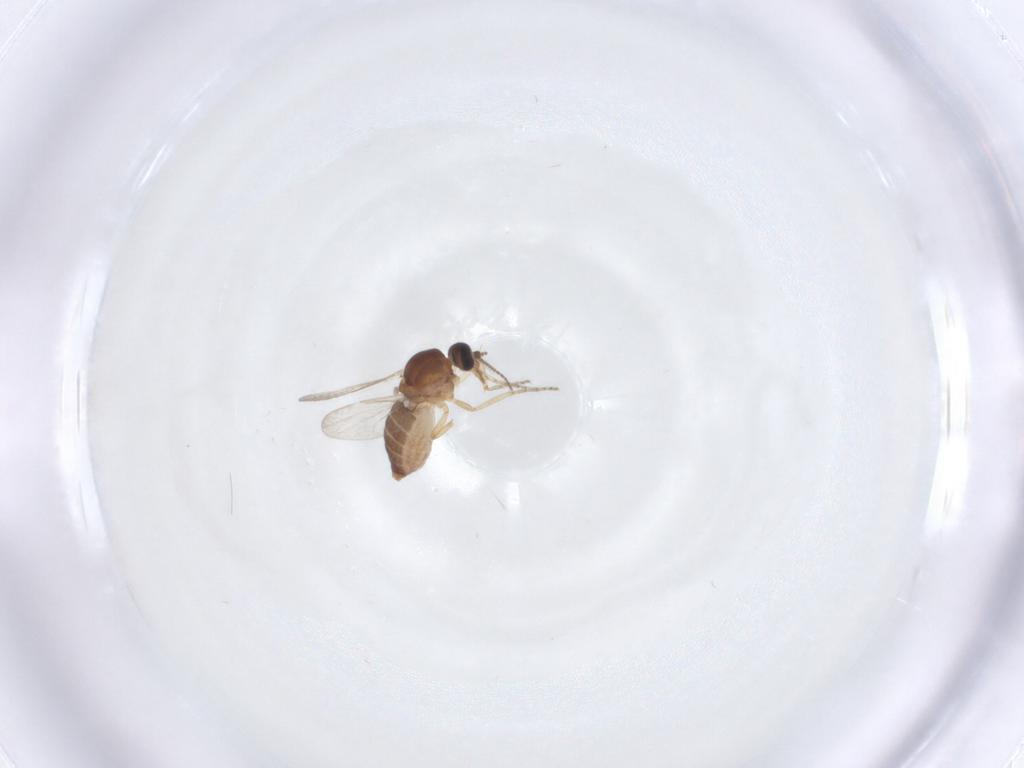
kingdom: Animalia
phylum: Arthropoda
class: Insecta
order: Diptera
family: Ceratopogonidae
